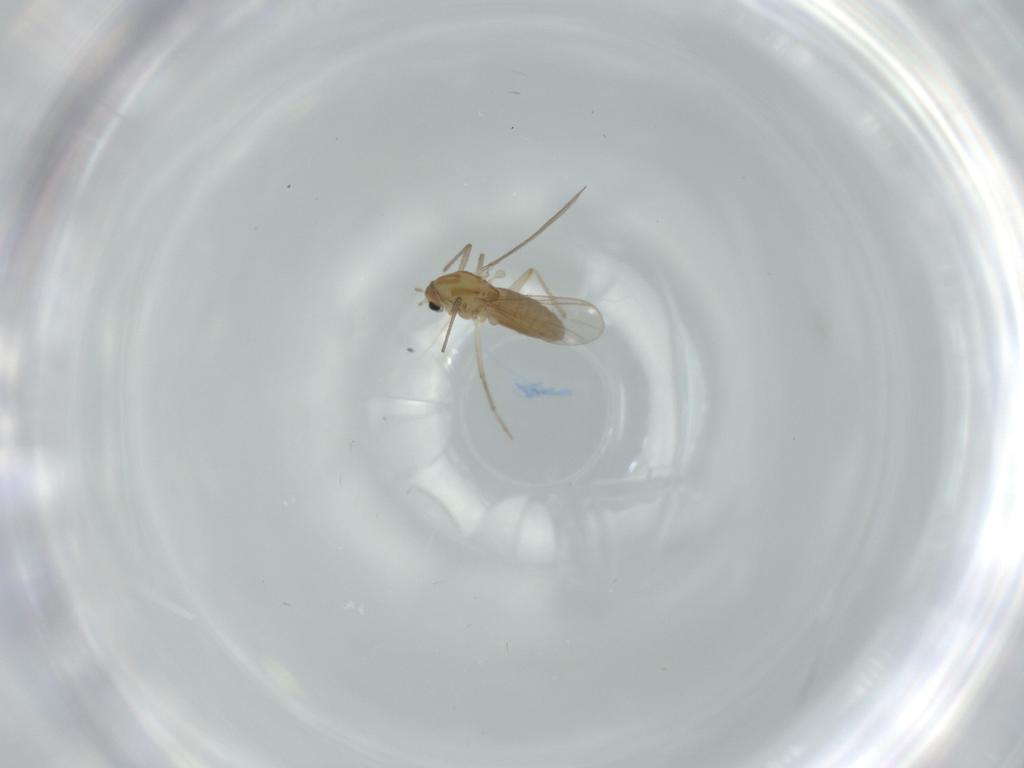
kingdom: Animalia
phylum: Arthropoda
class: Insecta
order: Diptera
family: Chironomidae
